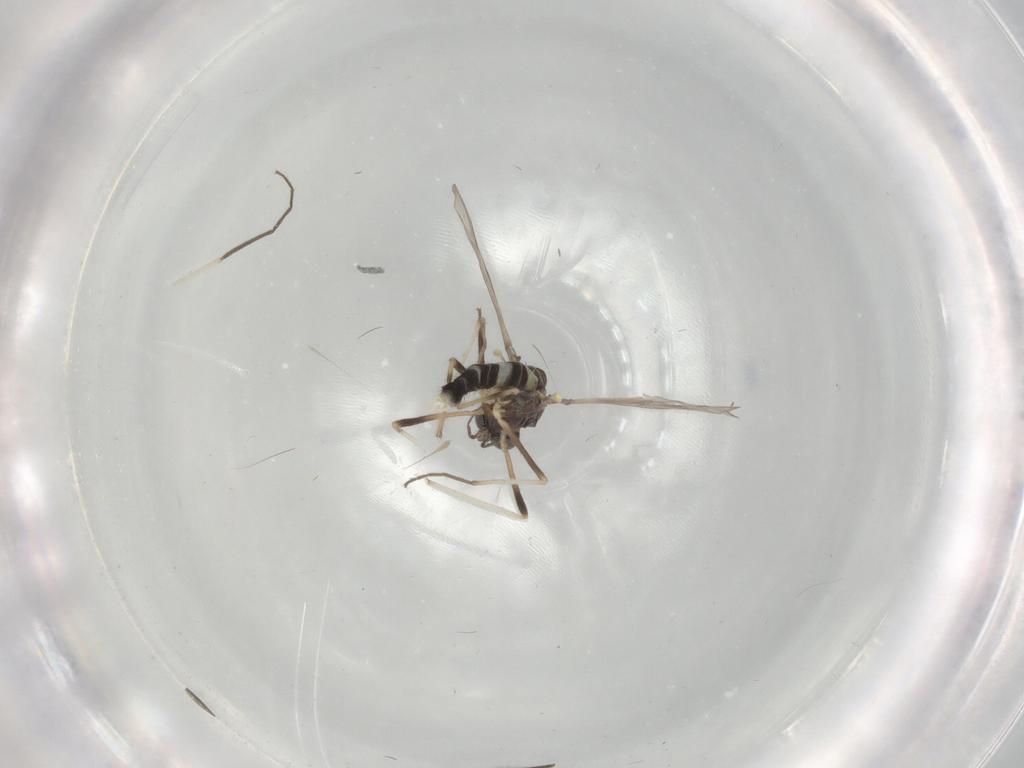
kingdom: Animalia
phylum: Arthropoda
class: Insecta
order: Diptera
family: Chironomidae
